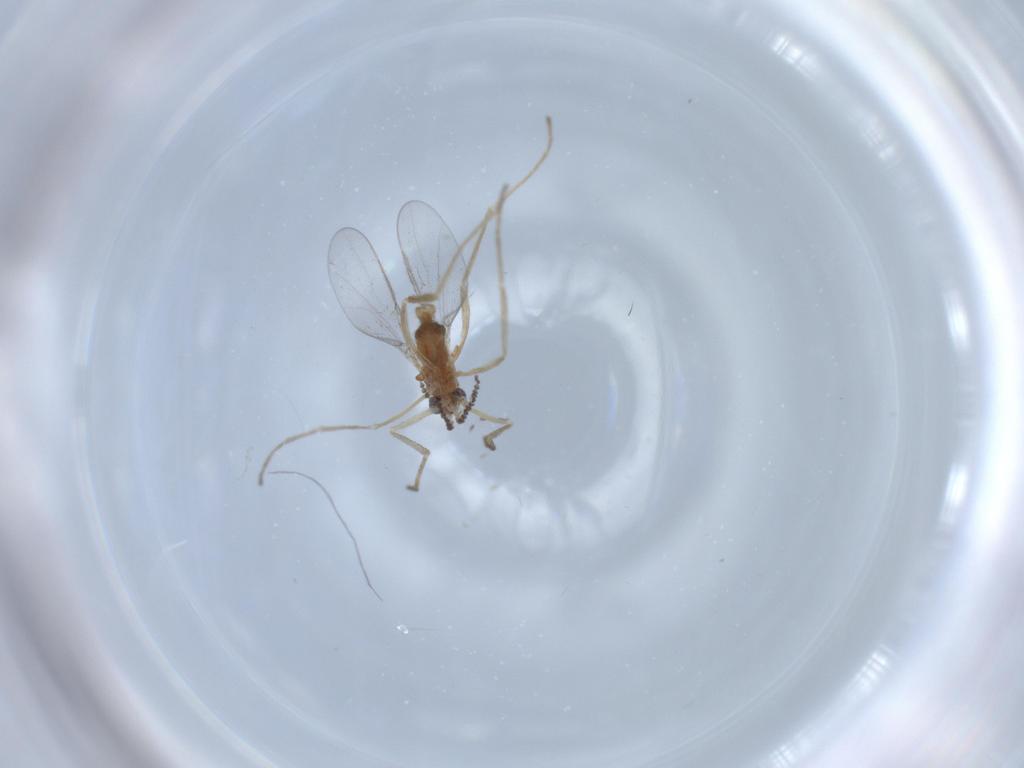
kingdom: Animalia
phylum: Arthropoda
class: Insecta
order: Diptera
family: Cecidomyiidae
